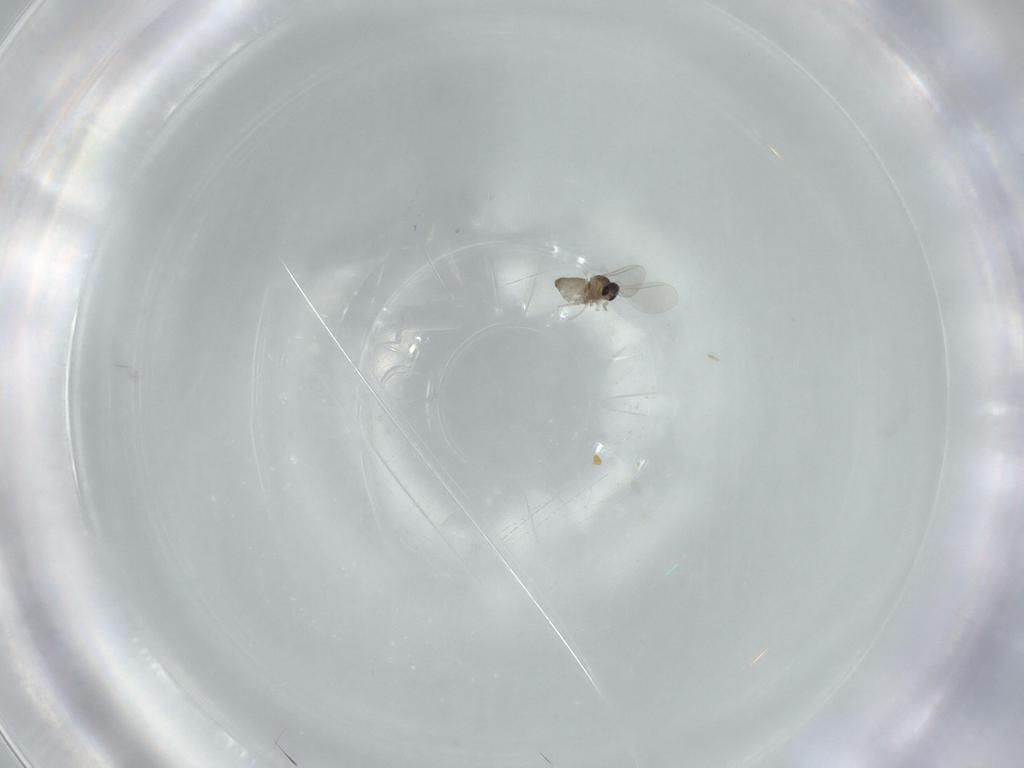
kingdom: Animalia
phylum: Arthropoda
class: Insecta
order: Diptera
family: Cecidomyiidae
